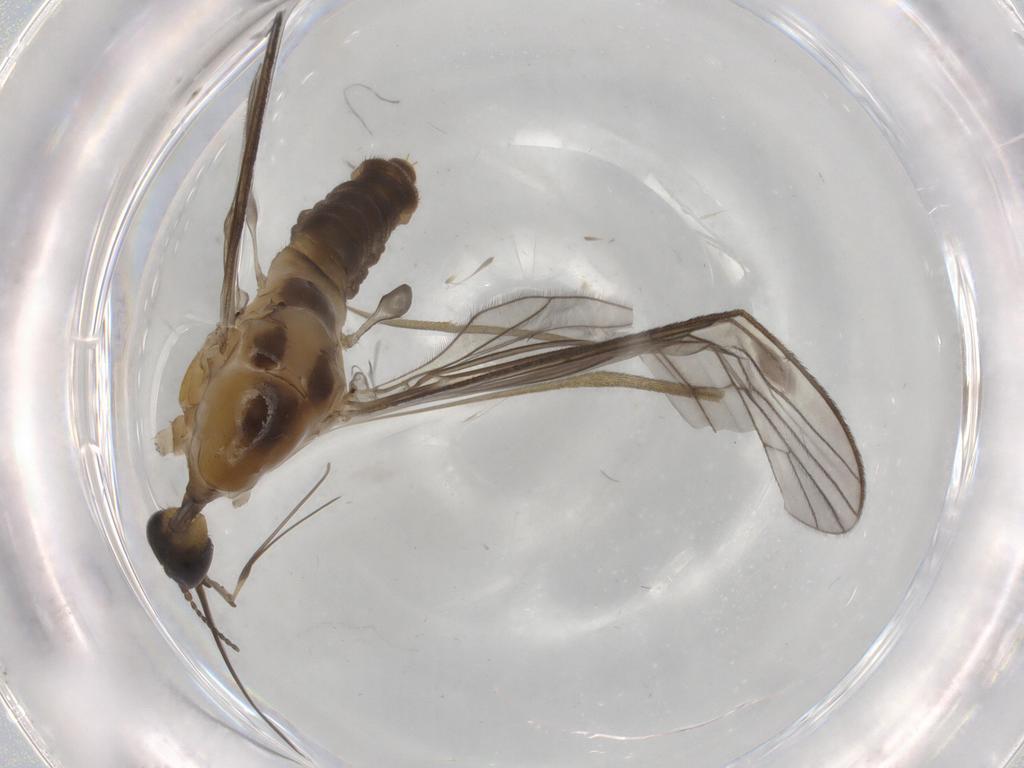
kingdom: Animalia
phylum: Arthropoda
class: Insecta
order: Diptera
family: Limoniidae
